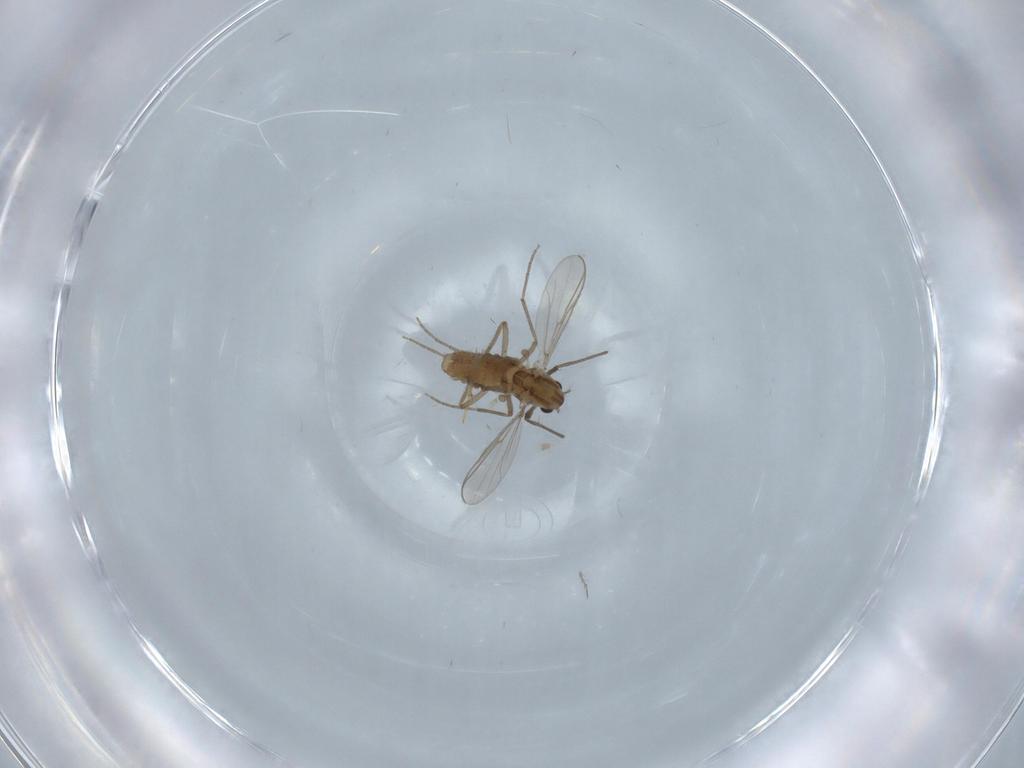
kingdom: Animalia
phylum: Arthropoda
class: Insecta
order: Diptera
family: Chironomidae
